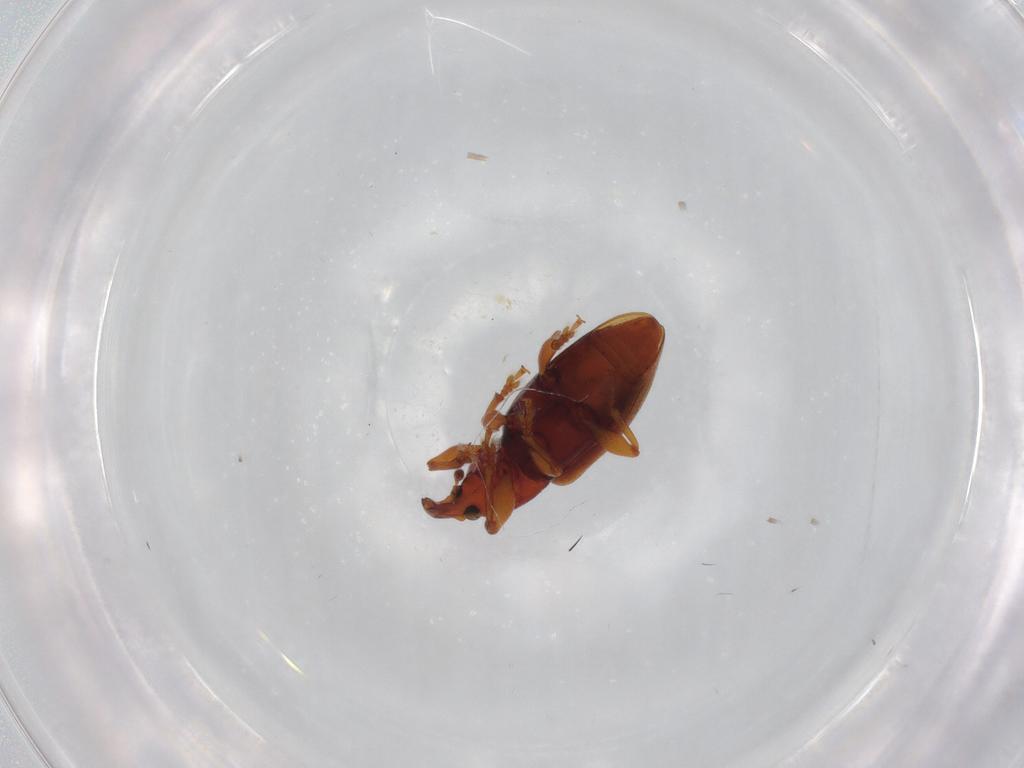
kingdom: Animalia
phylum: Arthropoda
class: Insecta
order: Coleoptera
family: Curculionidae
